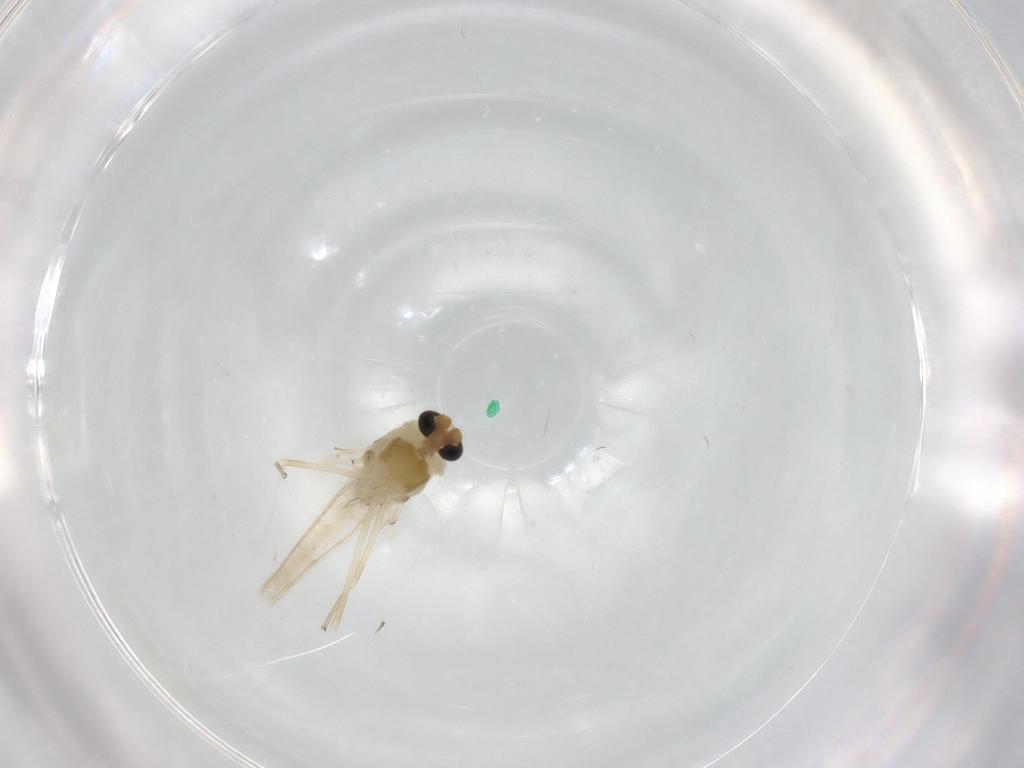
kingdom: Animalia
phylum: Arthropoda
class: Insecta
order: Diptera
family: Chironomidae
